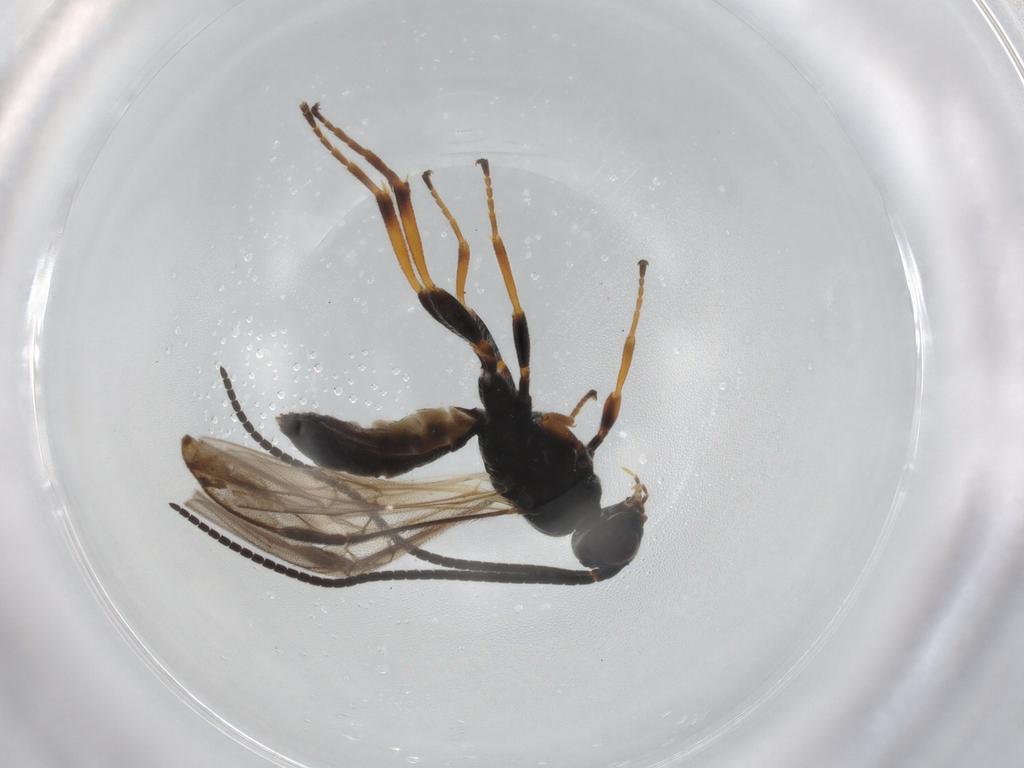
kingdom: Animalia
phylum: Arthropoda
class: Insecta
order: Hymenoptera
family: Braconidae
